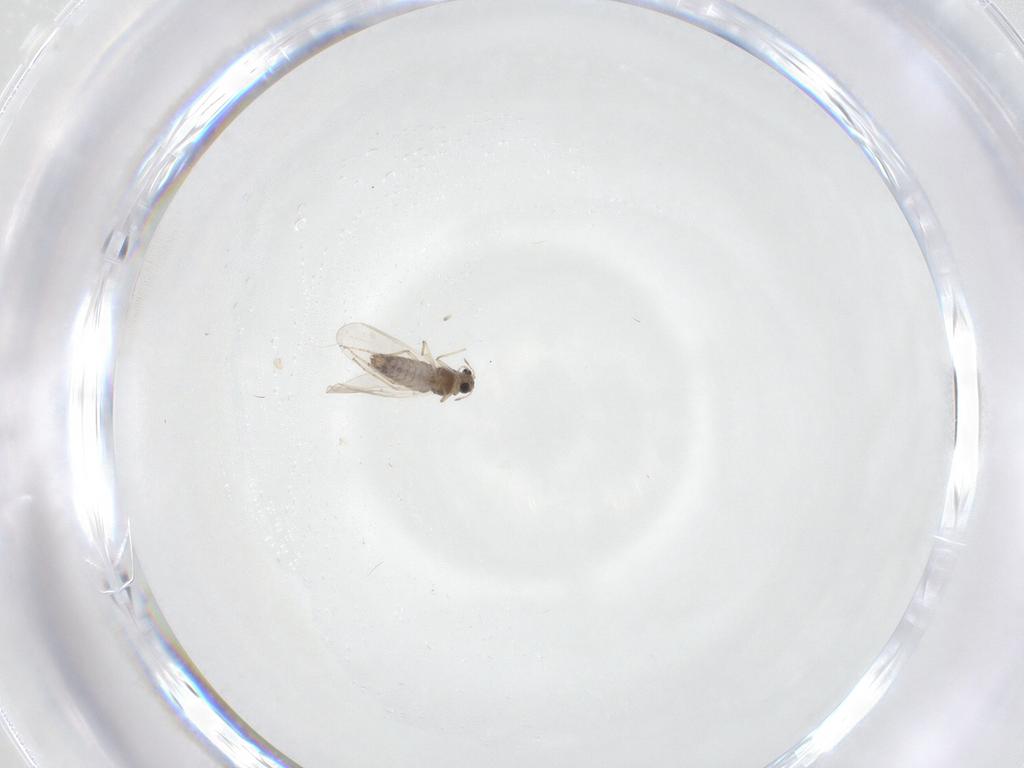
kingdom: Animalia
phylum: Arthropoda
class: Insecta
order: Diptera
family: Chironomidae
